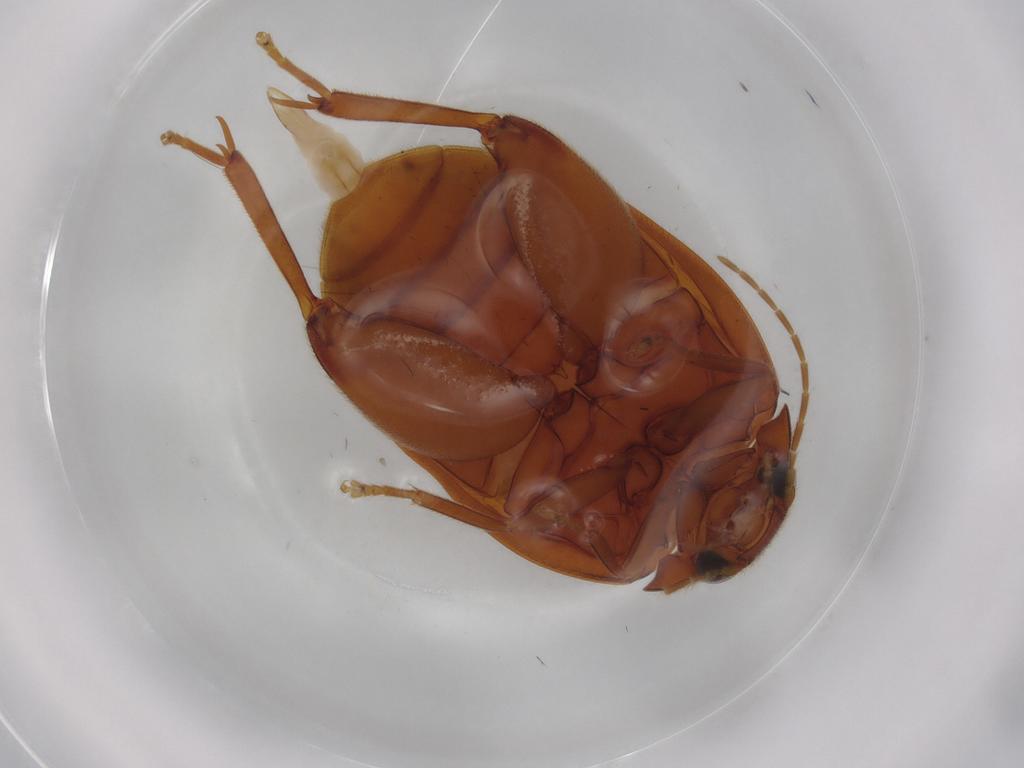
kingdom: Animalia
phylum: Arthropoda
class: Insecta
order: Coleoptera
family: Scirtidae
